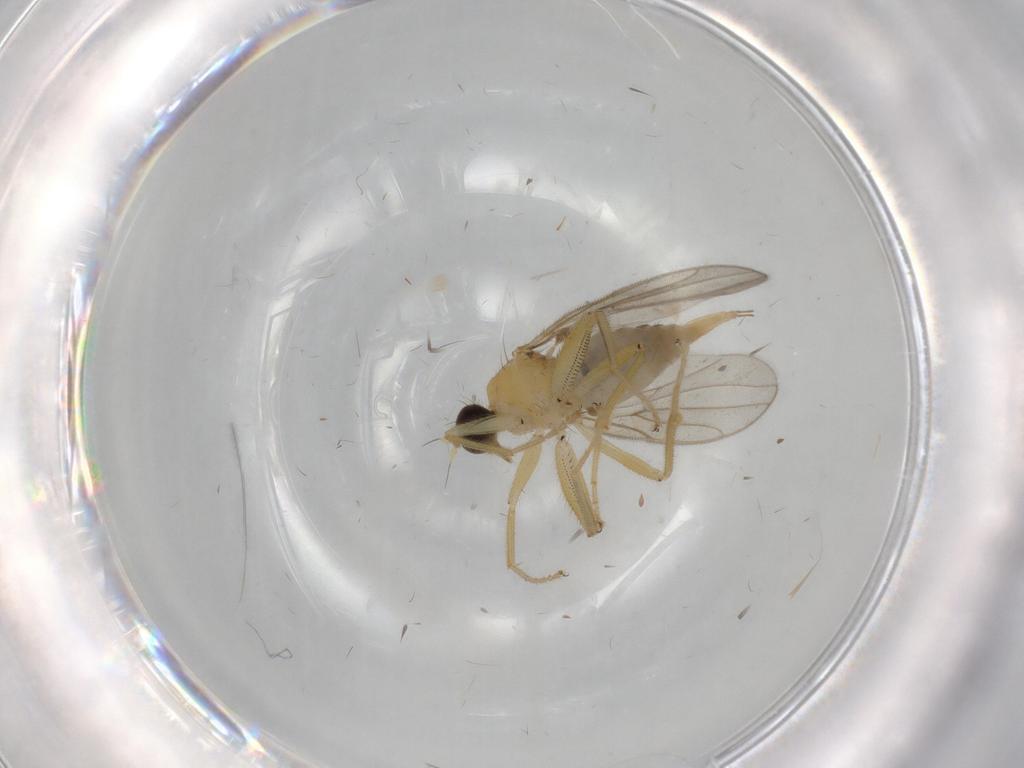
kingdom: Animalia
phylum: Arthropoda
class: Insecta
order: Diptera
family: Hybotidae
